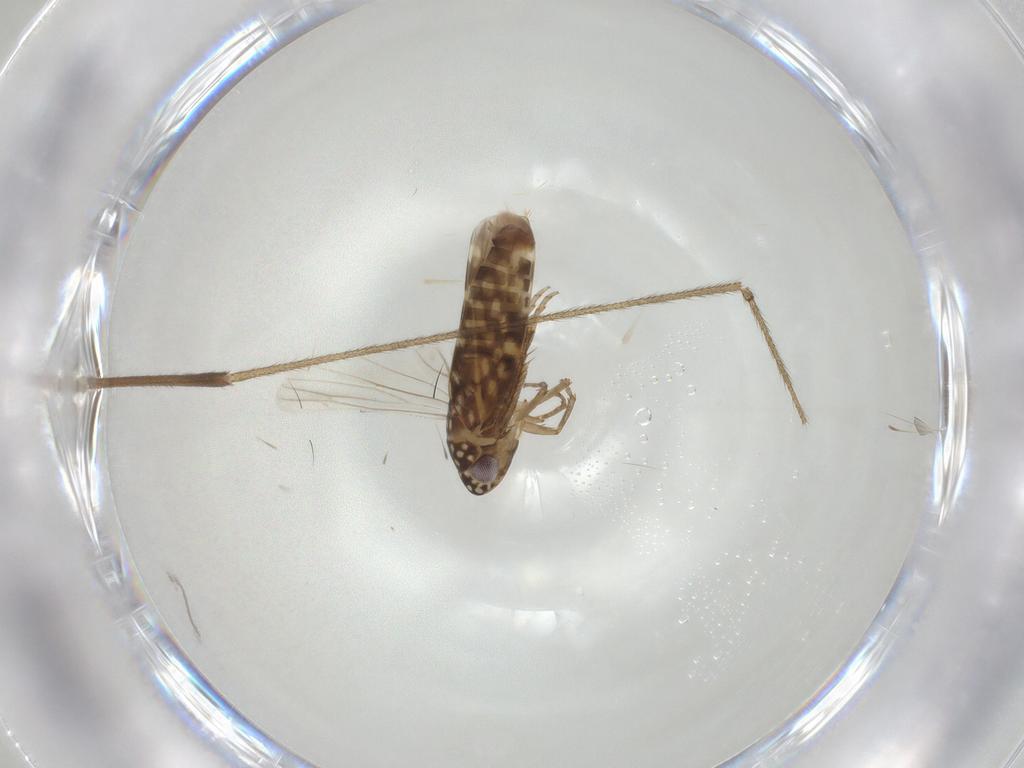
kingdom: Animalia
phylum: Arthropoda
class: Insecta
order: Hemiptera
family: Cicadellidae
